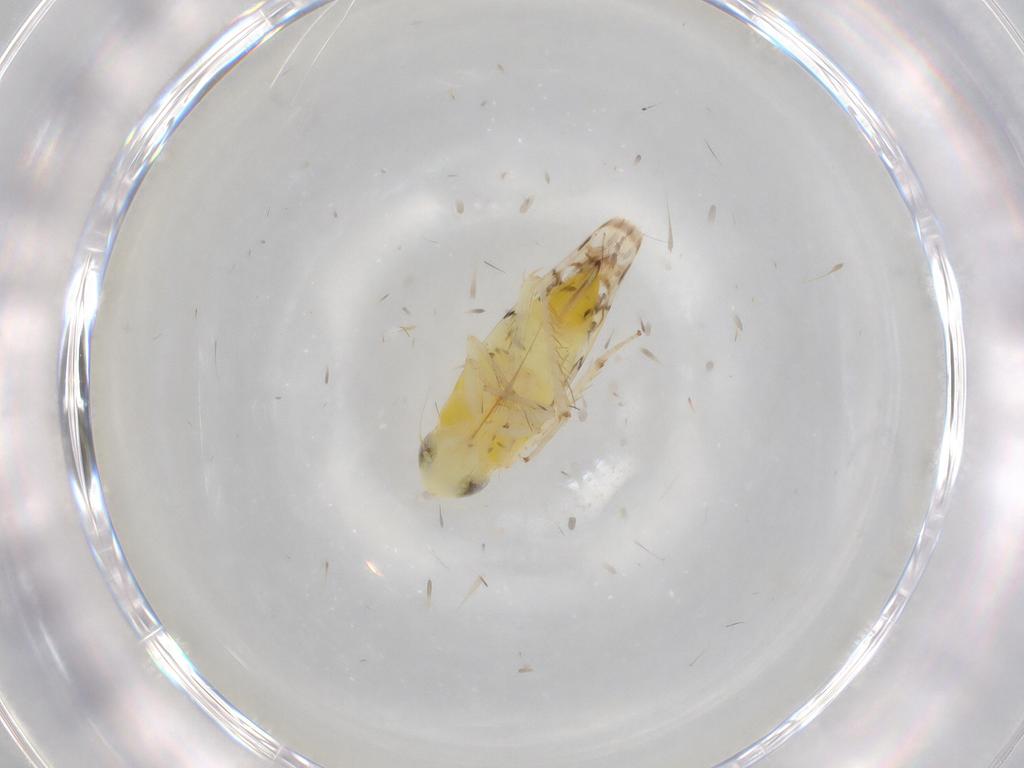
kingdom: Animalia
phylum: Arthropoda
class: Insecta
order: Hemiptera
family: Cicadellidae
